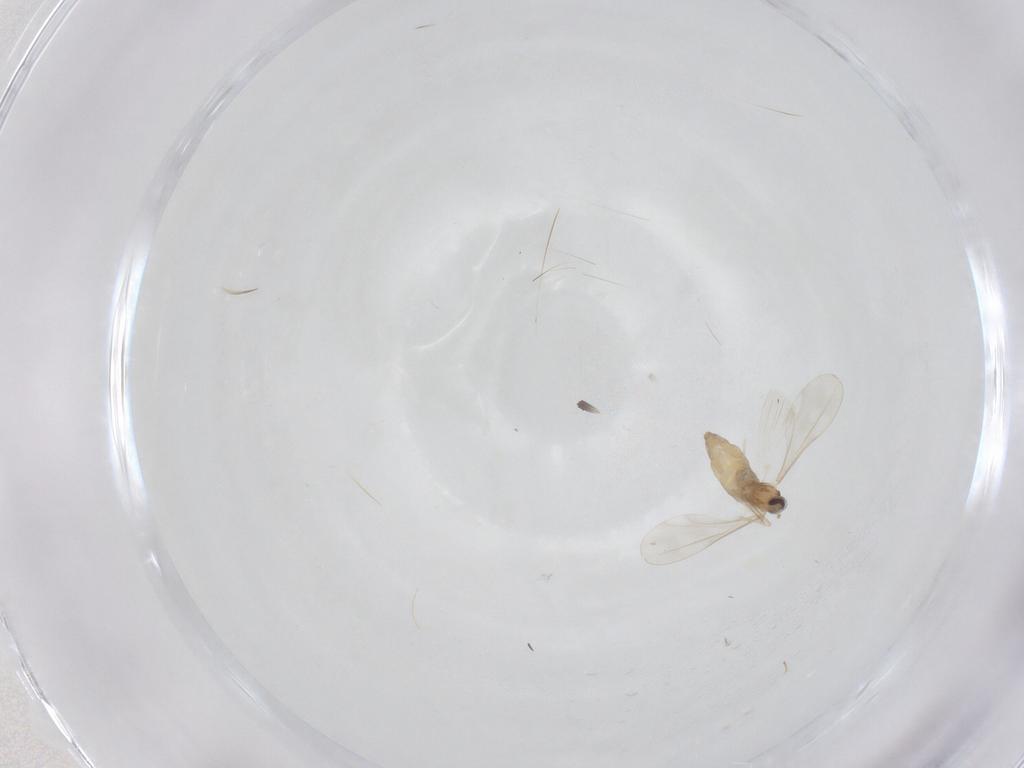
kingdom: Animalia
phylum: Arthropoda
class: Insecta
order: Diptera
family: Cecidomyiidae
